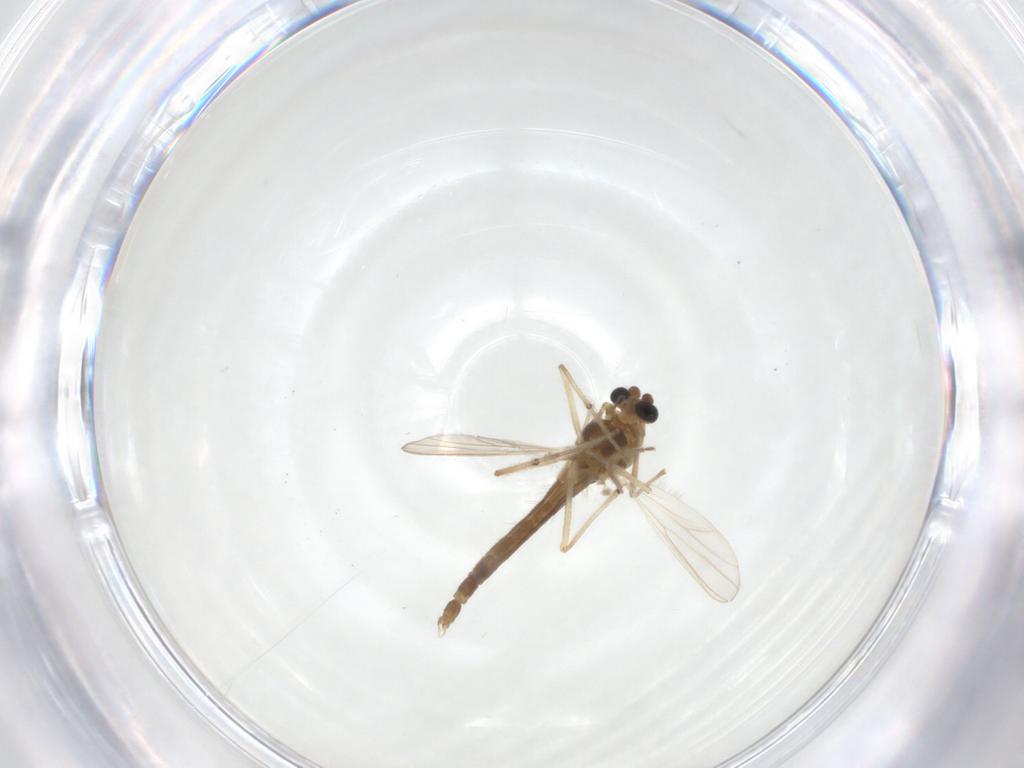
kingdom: Animalia
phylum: Arthropoda
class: Insecta
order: Diptera
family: Chironomidae
